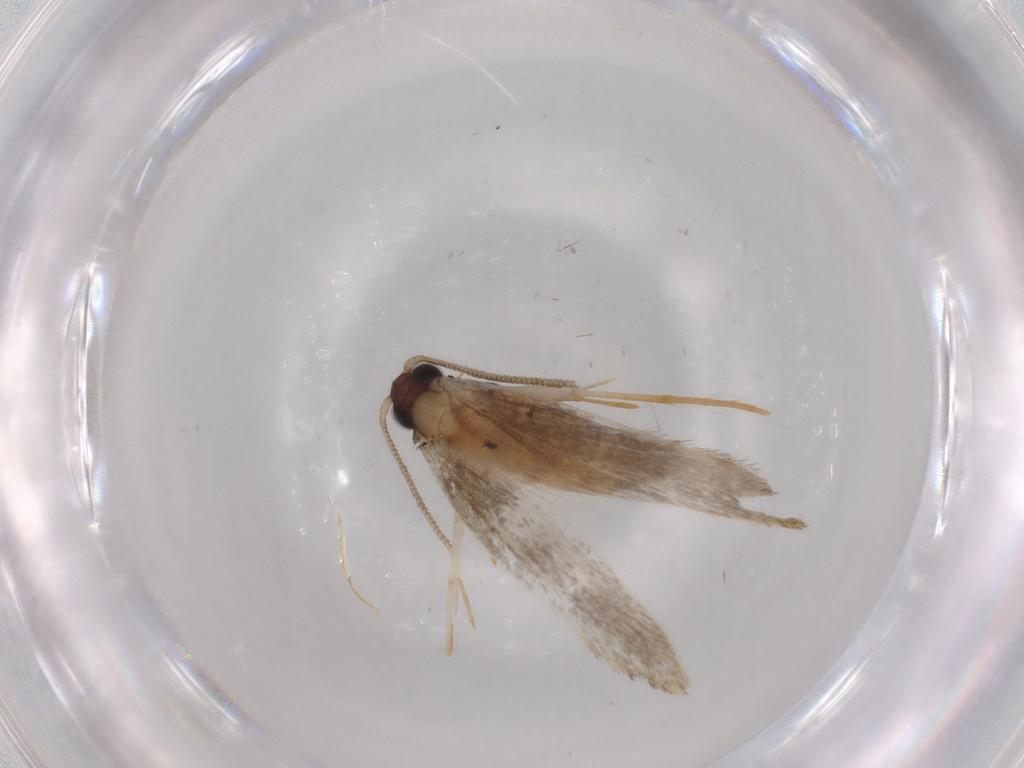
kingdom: Animalia
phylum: Arthropoda
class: Insecta
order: Lepidoptera
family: Tineidae
